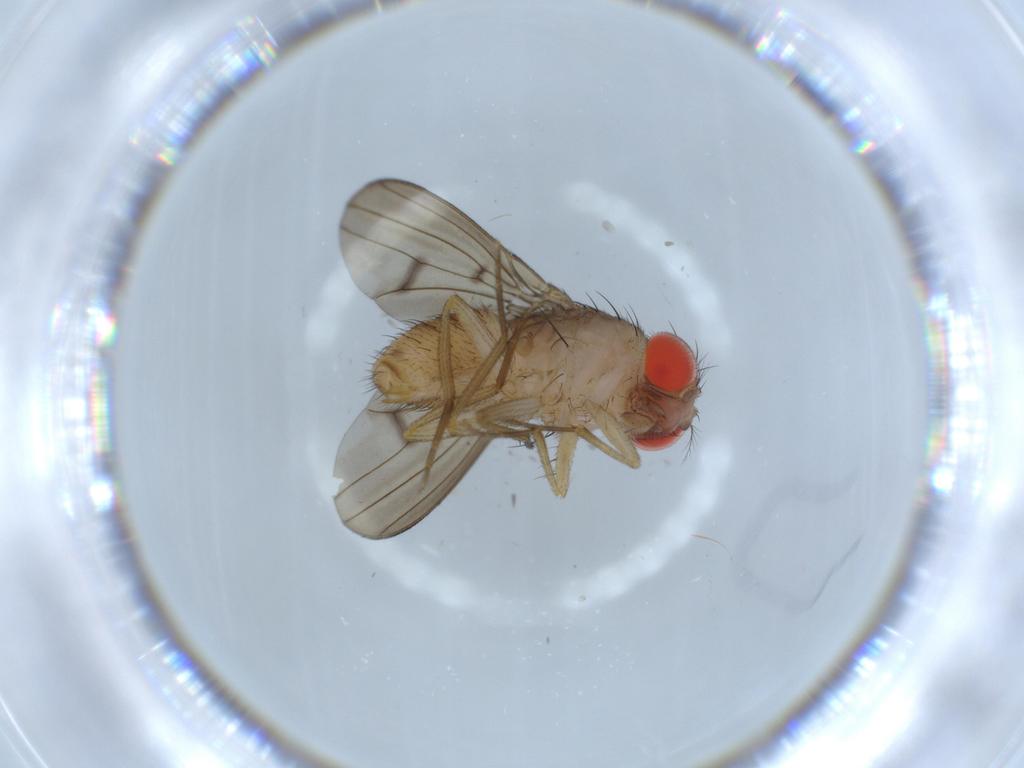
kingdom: Animalia
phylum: Arthropoda
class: Insecta
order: Diptera
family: Drosophilidae
